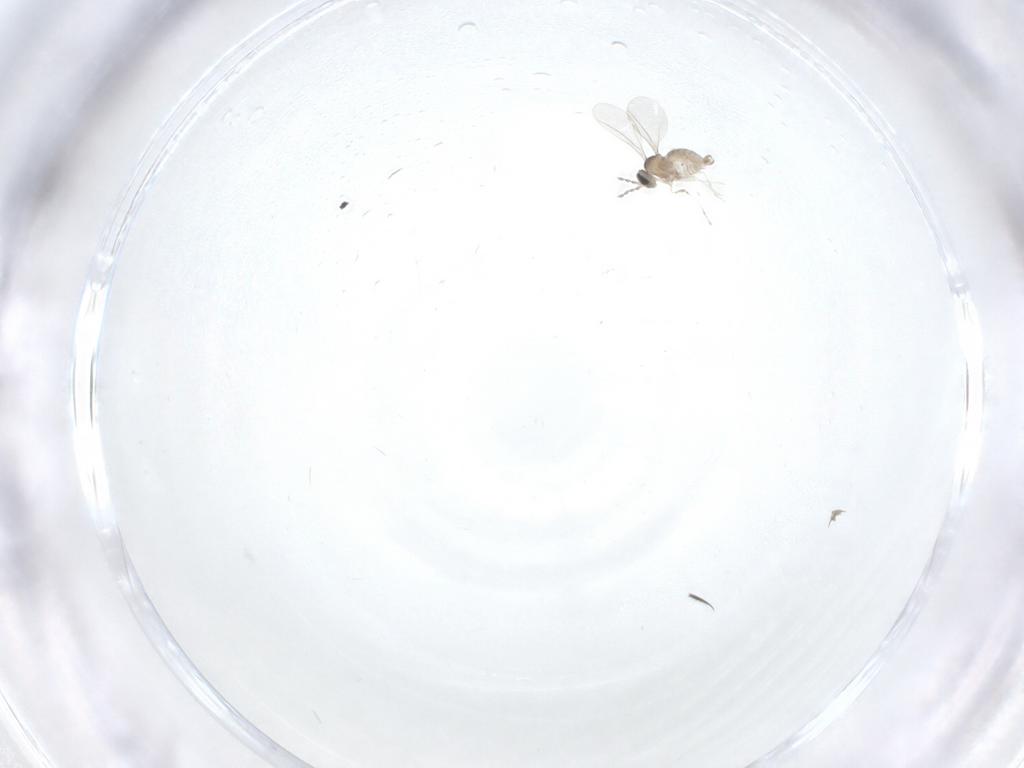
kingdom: Animalia
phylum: Arthropoda
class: Insecta
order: Diptera
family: Cecidomyiidae
